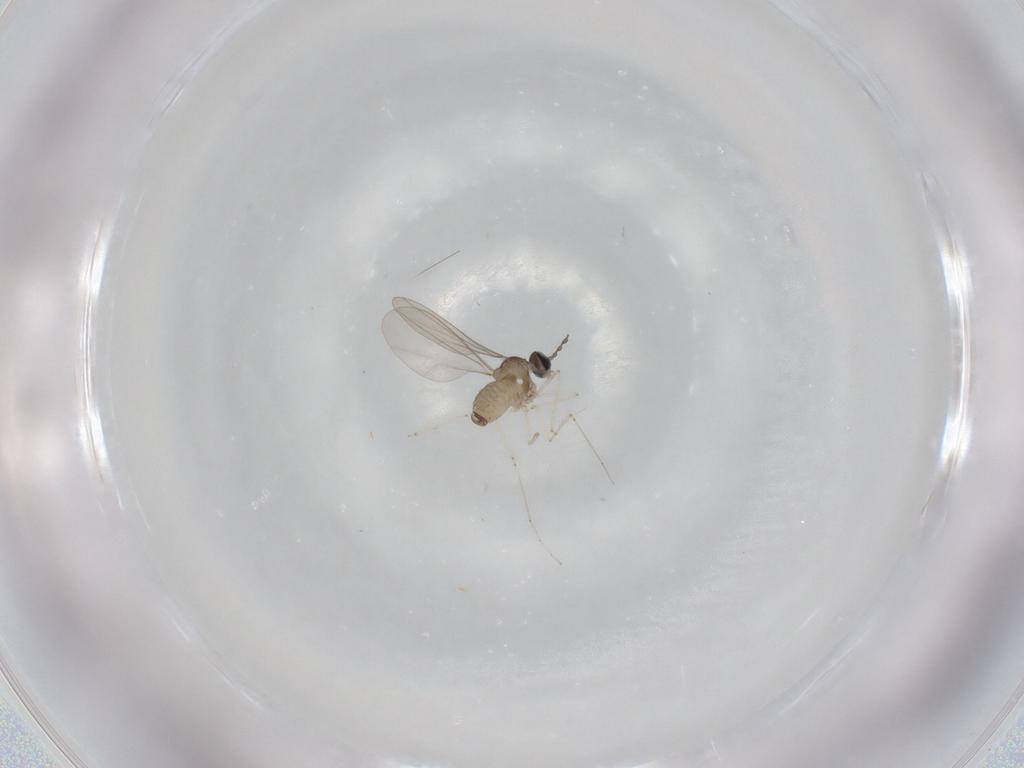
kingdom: Animalia
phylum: Arthropoda
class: Insecta
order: Diptera
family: Cecidomyiidae
